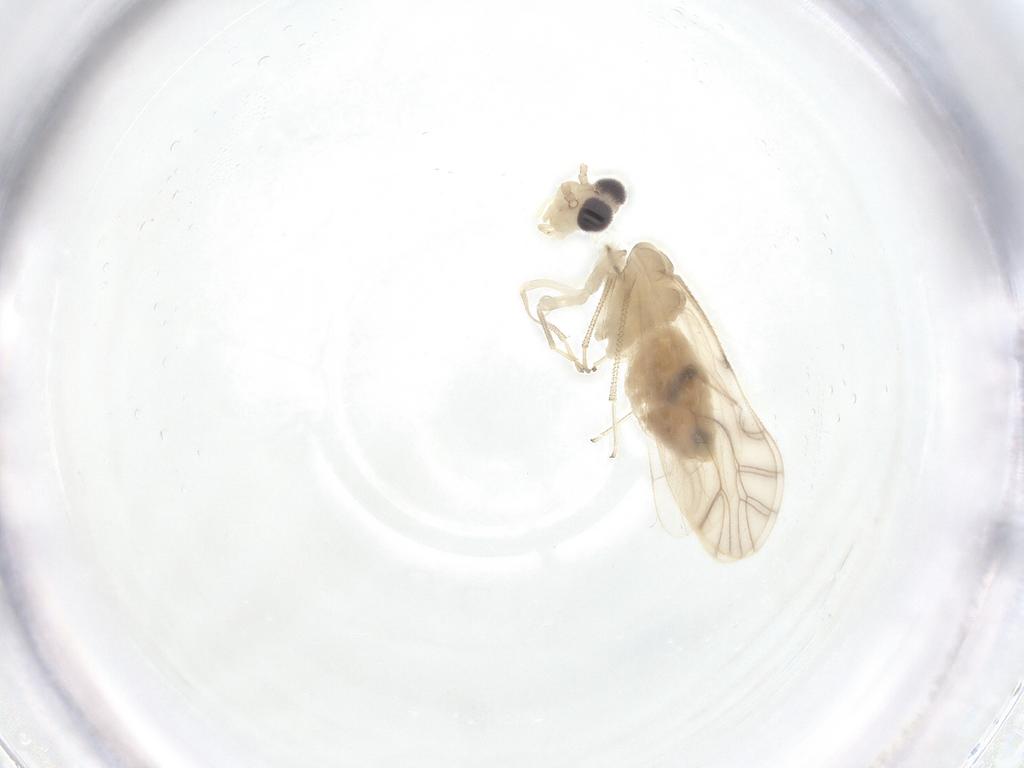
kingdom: Animalia
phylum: Arthropoda
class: Insecta
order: Psocodea
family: Caeciliusidae
